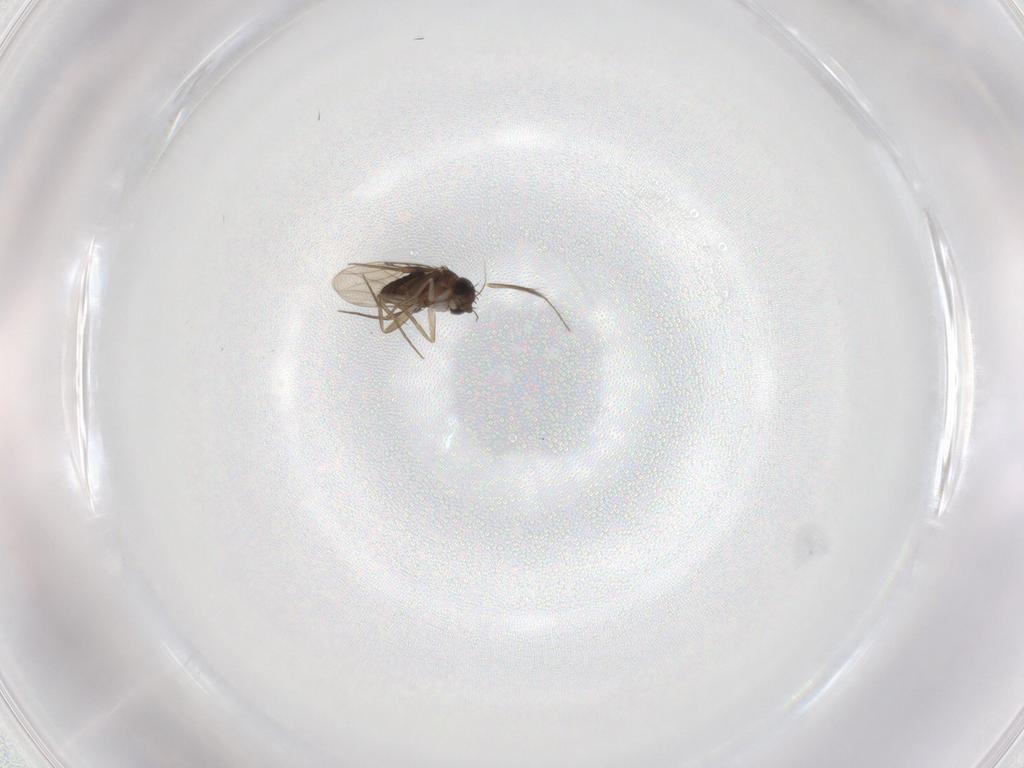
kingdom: Animalia
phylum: Arthropoda
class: Insecta
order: Diptera
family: Phoridae
